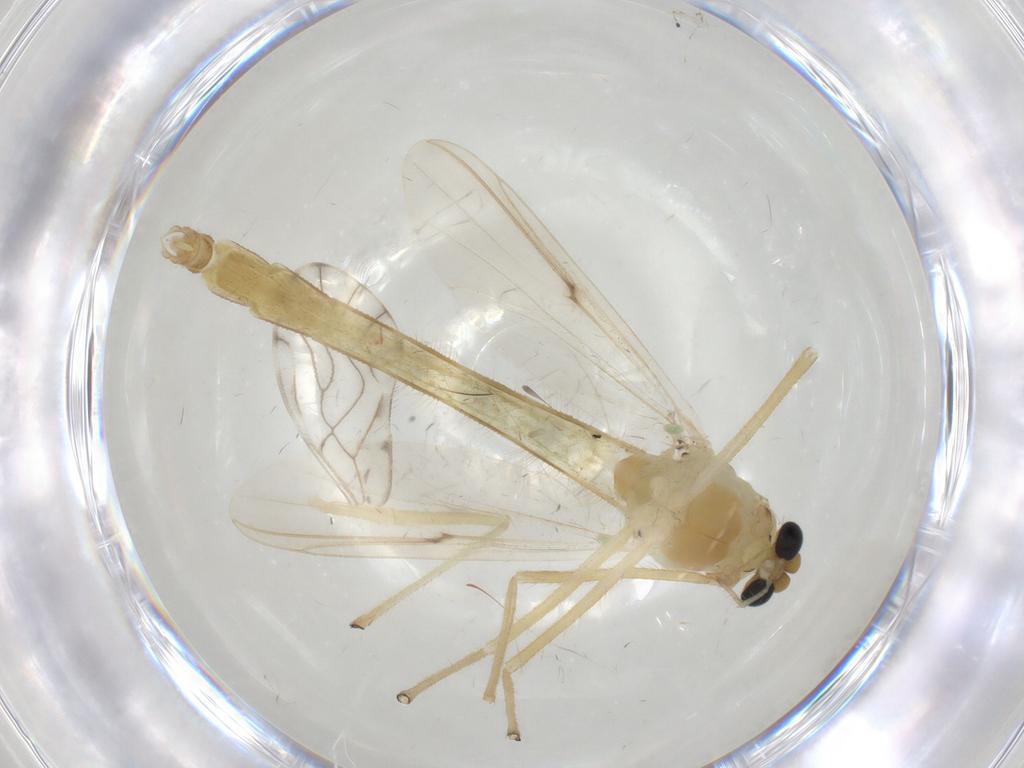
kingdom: Animalia
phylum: Arthropoda
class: Insecta
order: Diptera
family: Chironomidae
